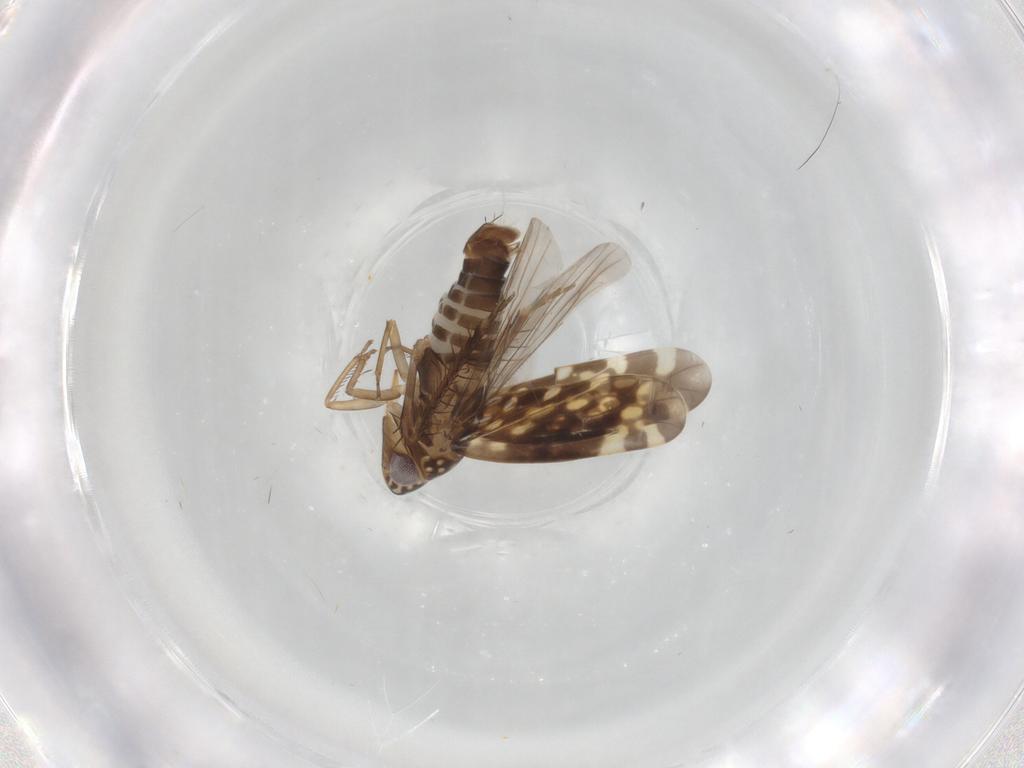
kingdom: Animalia
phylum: Arthropoda
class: Insecta
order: Hemiptera
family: Cicadellidae
